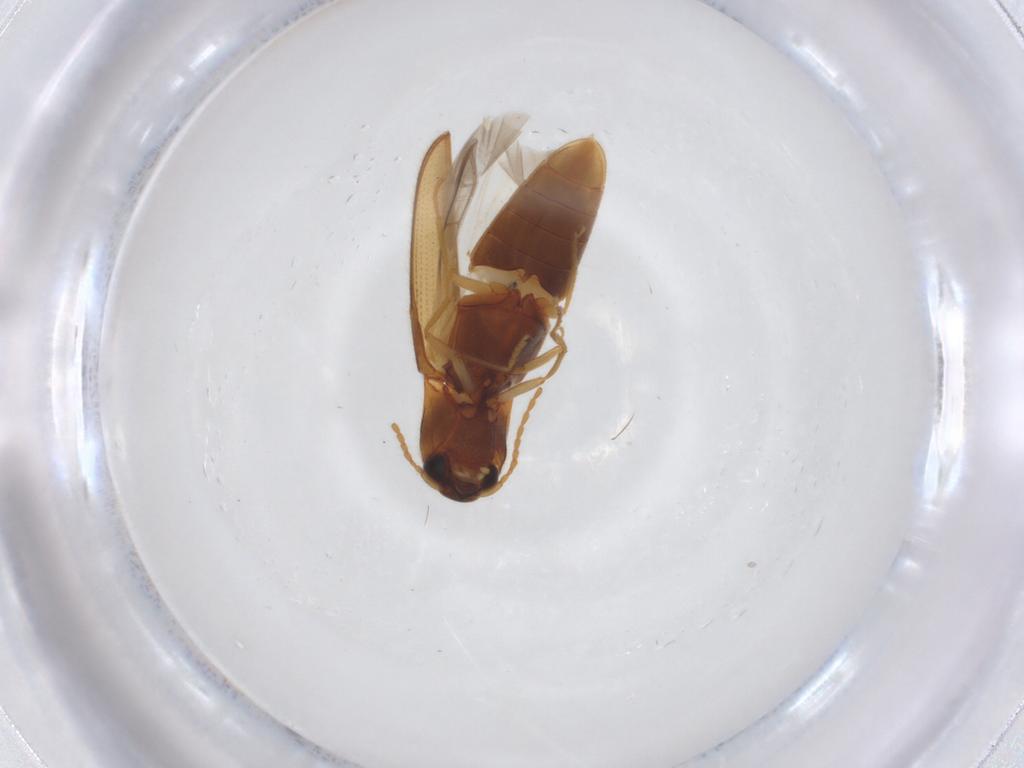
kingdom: Animalia
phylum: Arthropoda
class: Insecta
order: Coleoptera
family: Elateridae
